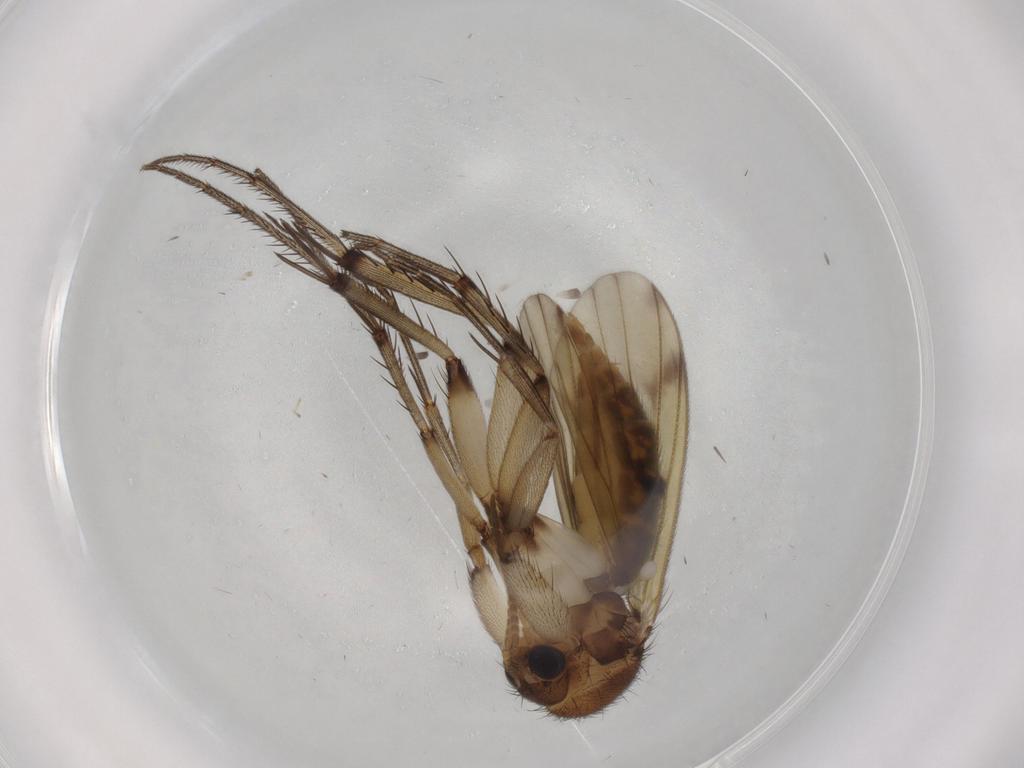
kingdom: Animalia
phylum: Arthropoda
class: Insecta
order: Diptera
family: Mycetophilidae
